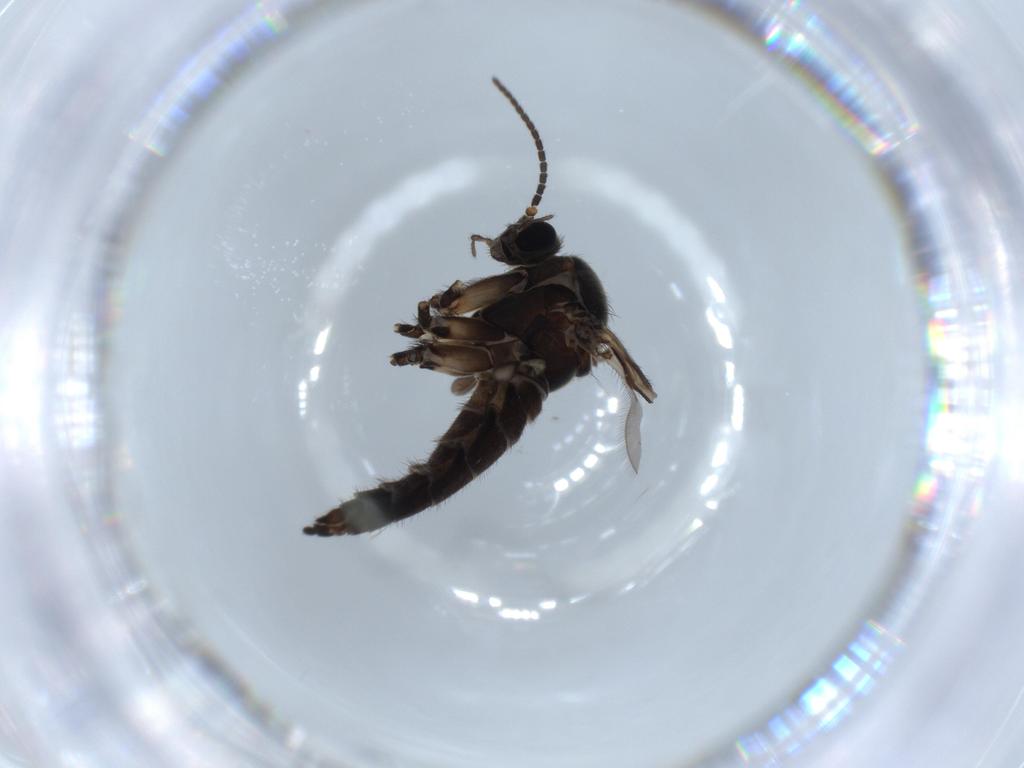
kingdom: Animalia
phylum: Arthropoda
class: Insecta
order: Diptera
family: Sciaridae
